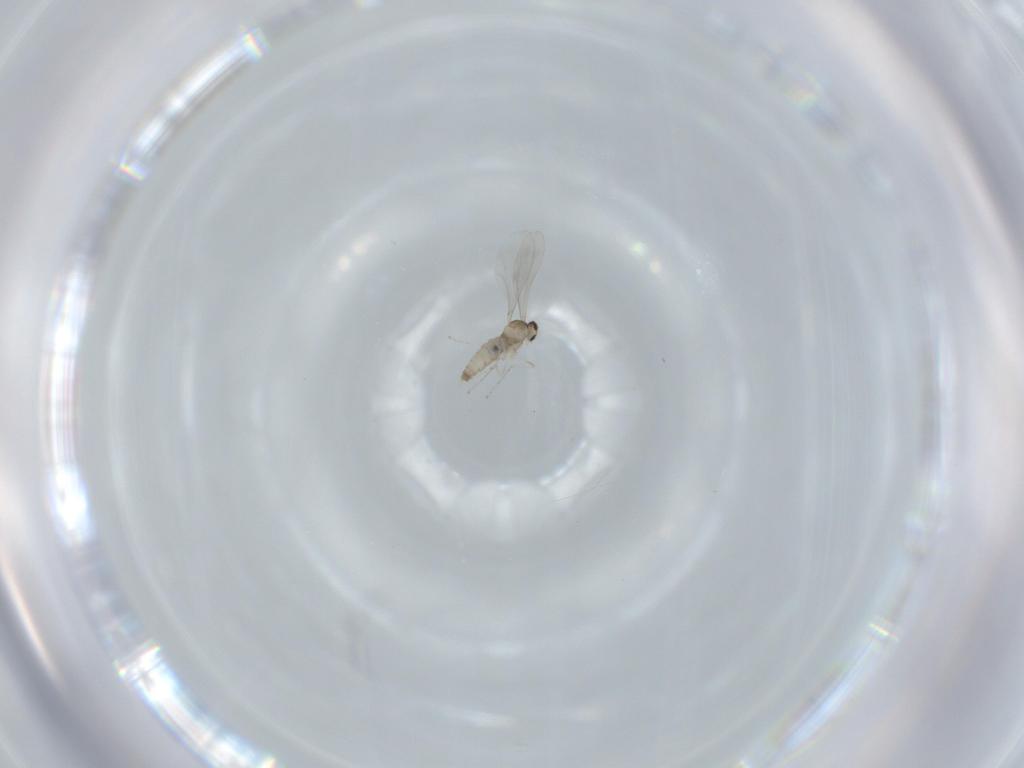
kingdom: Animalia
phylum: Arthropoda
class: Insecta
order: Diptera
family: Cecidomyiidae
